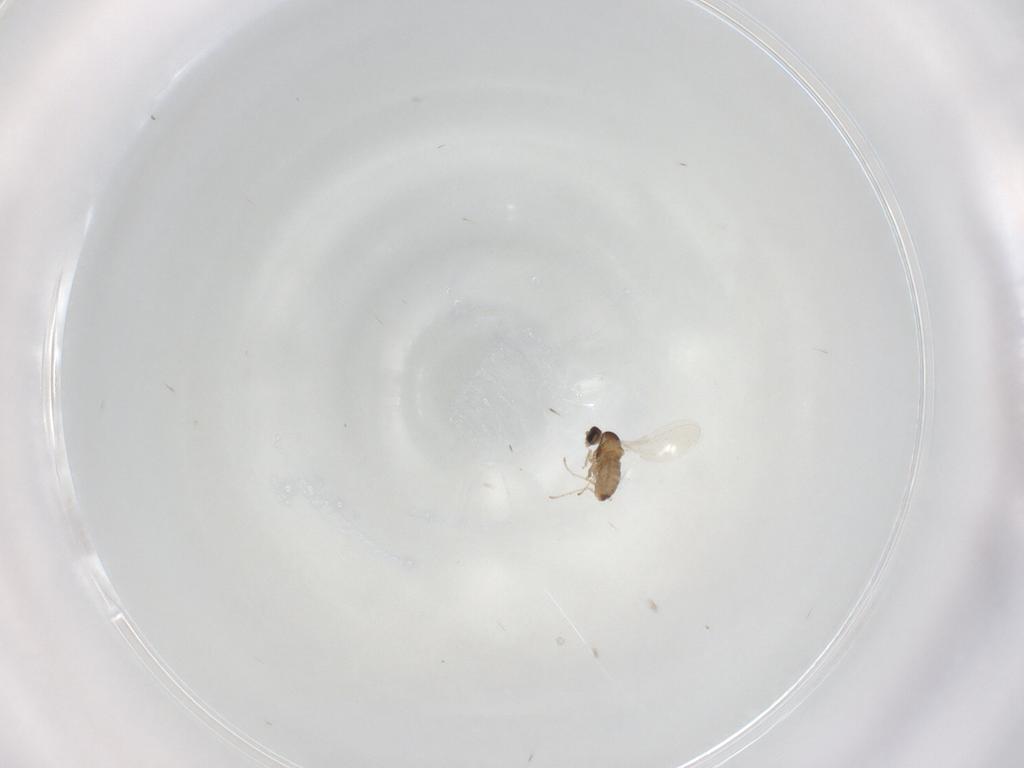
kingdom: Animalia
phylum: Arthropoda
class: Insecta
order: Diptera
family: Cecidomyiidae
